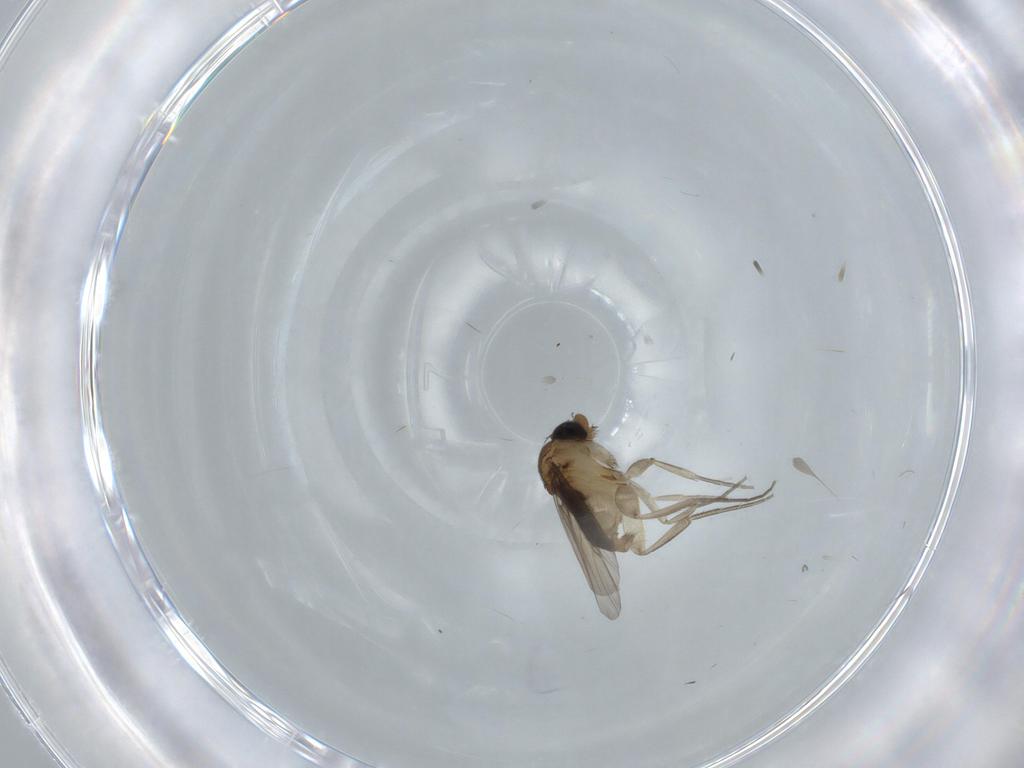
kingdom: Animalia
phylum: Arthropoda
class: Insecta
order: Diptera
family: Phoridae
